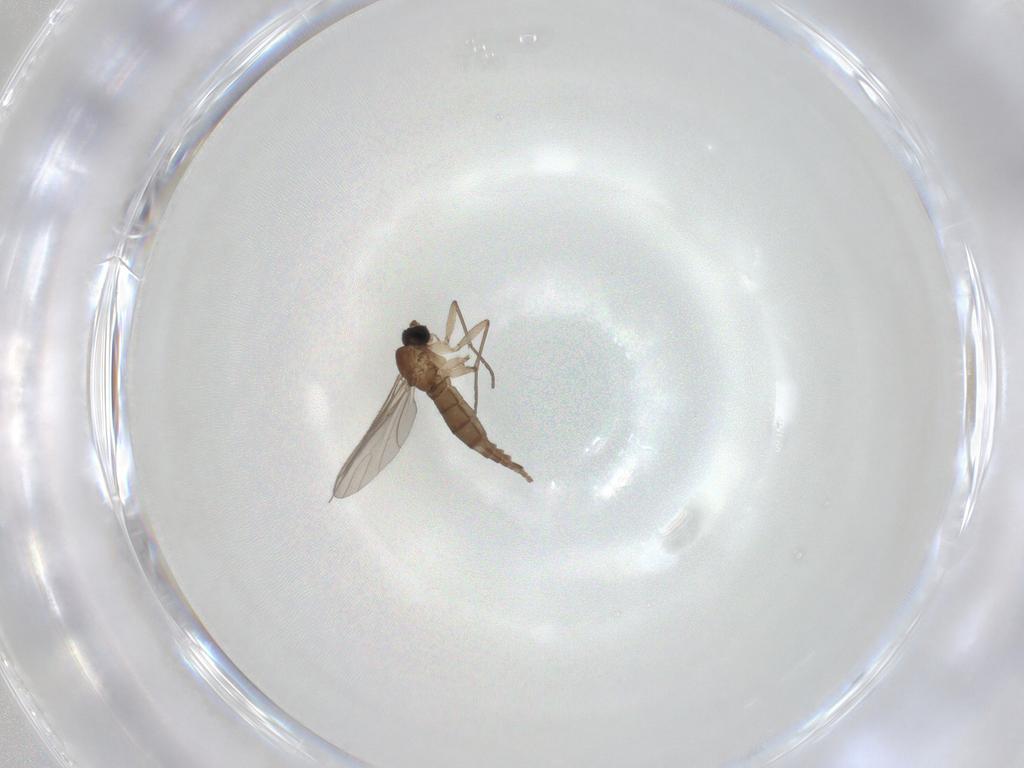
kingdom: Animalia
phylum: Arthropoda
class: Insecta
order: Diptera
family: Sciaridae
